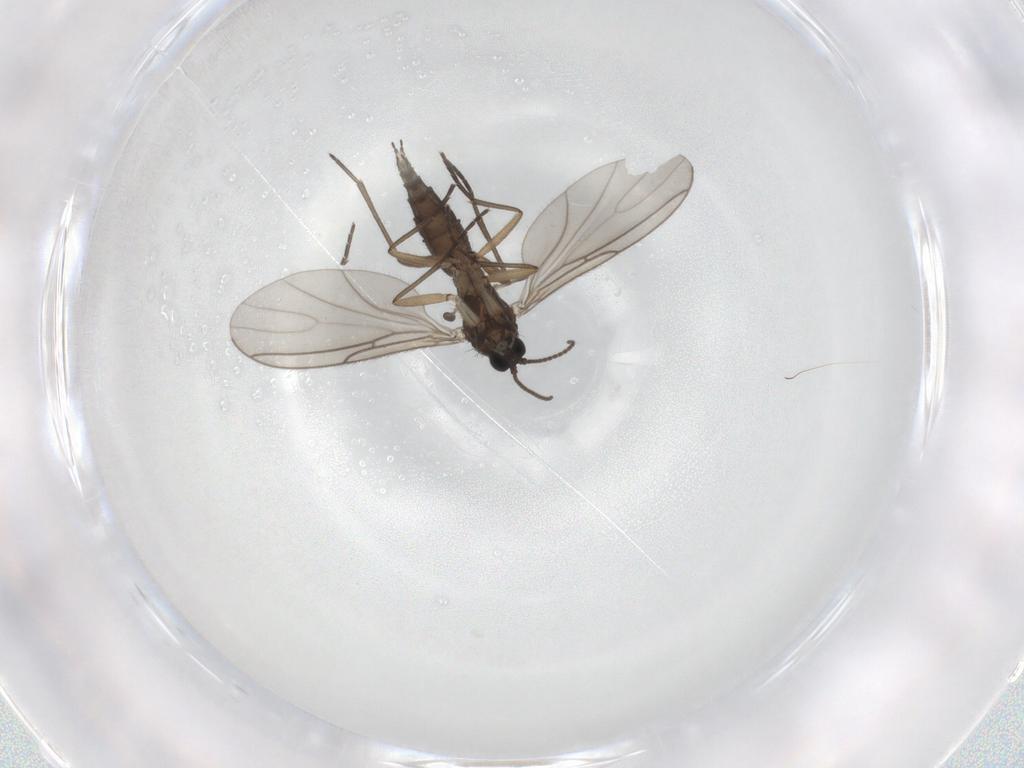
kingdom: Animalia
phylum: Arthropoda
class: Insecta
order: Diptera
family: Sciaridae
